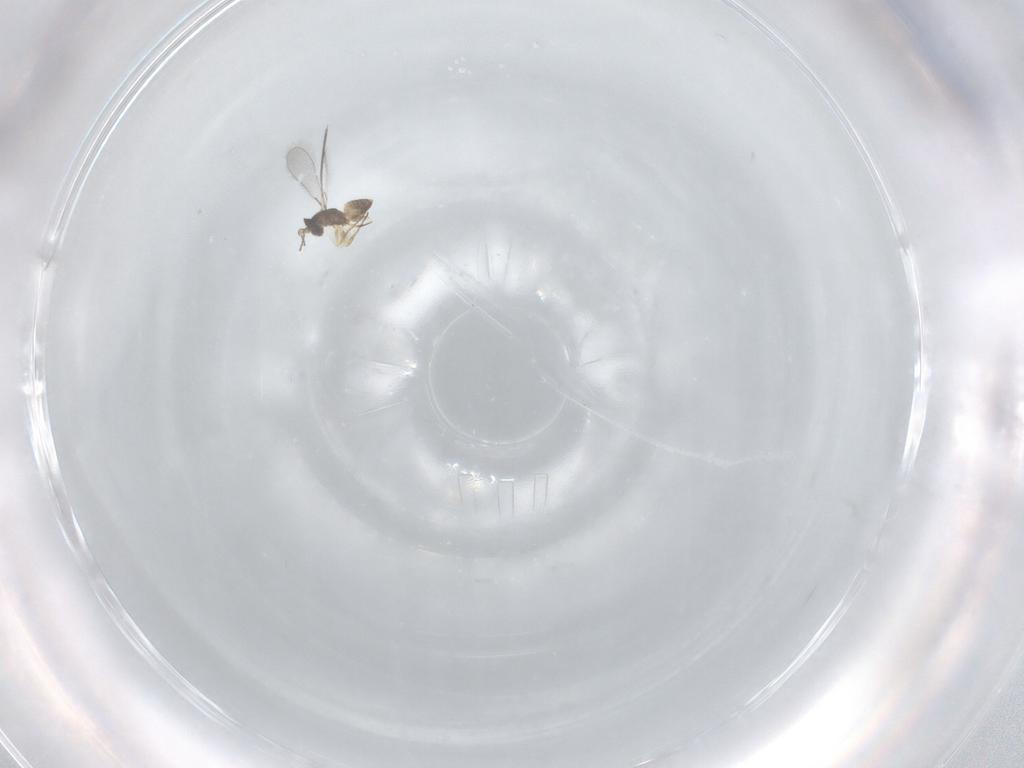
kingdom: Animalia
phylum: Arthropoda
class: Insecta
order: Hymenoptera
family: Mymaridae
